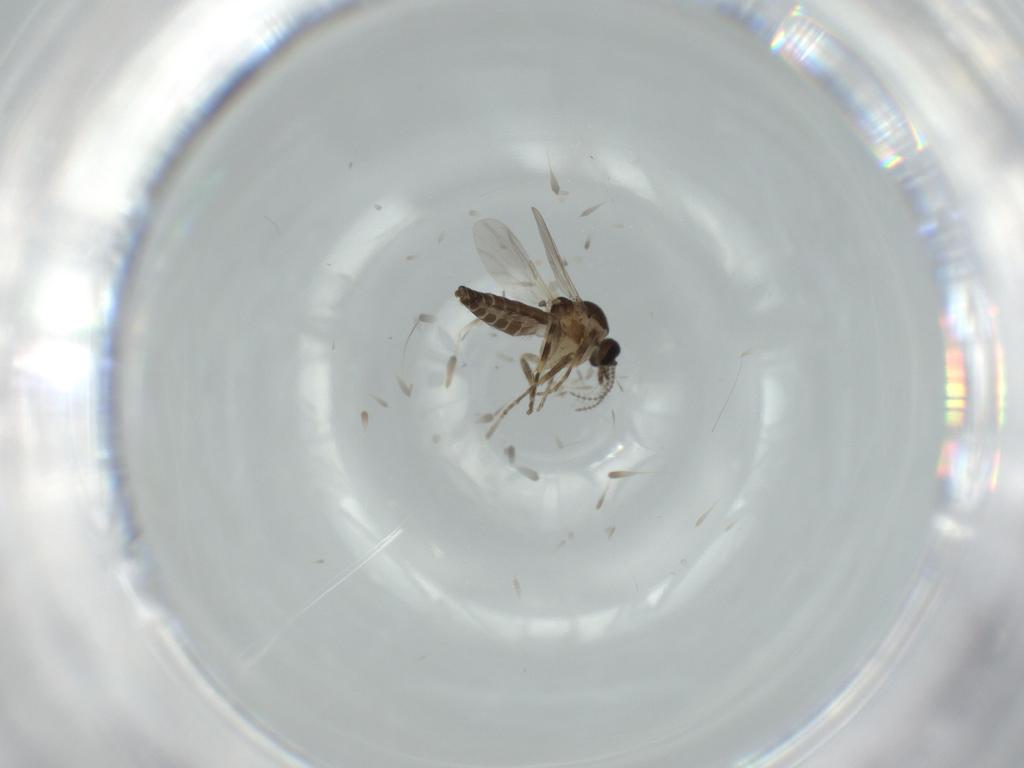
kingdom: Animalia
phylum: Arthropoda
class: Insecta
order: Diptera
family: Ceratopogonidae
